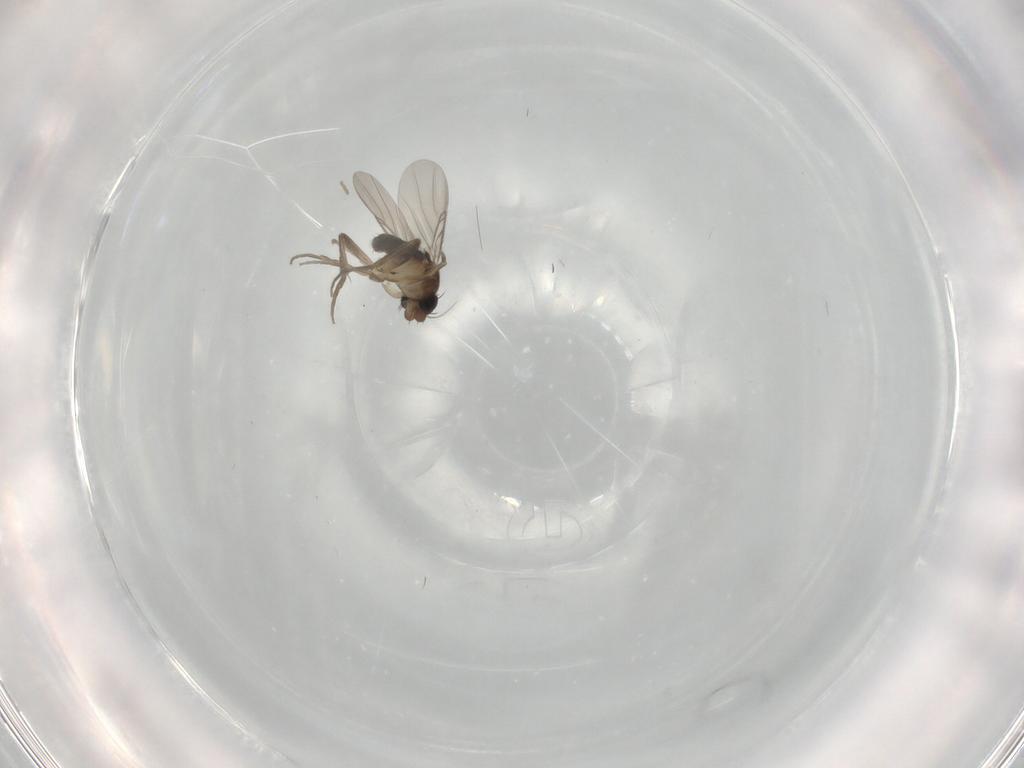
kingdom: Animalia
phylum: Arthropoda
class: Insecta
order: Diptera
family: Phoridae
